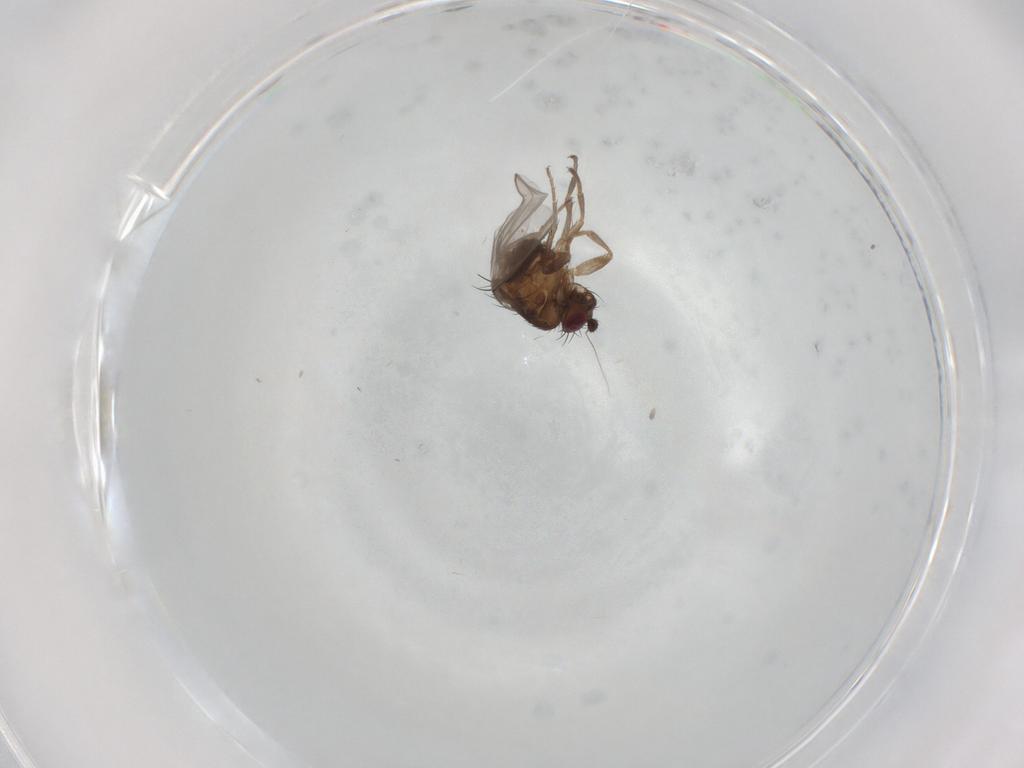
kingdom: Animalia
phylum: Arthropoda
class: Insecta
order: Diptera
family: Sphaeroceridae
